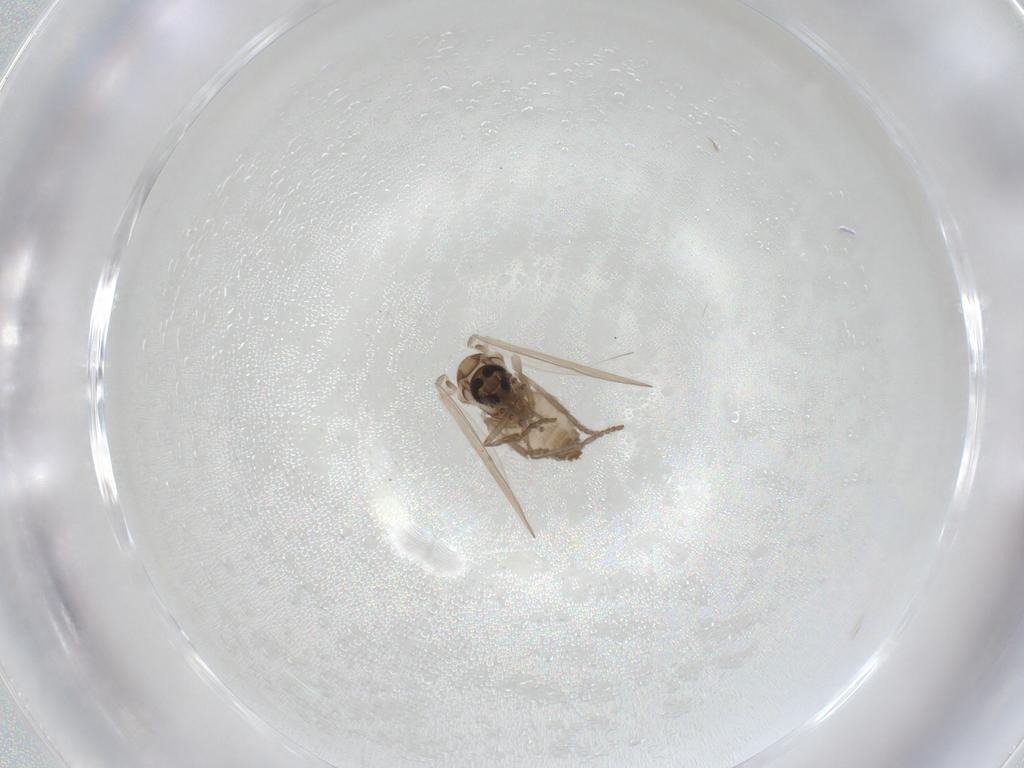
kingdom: Animalia
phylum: Arthropoda
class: Insecta
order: Diptera
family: Psychodidae
